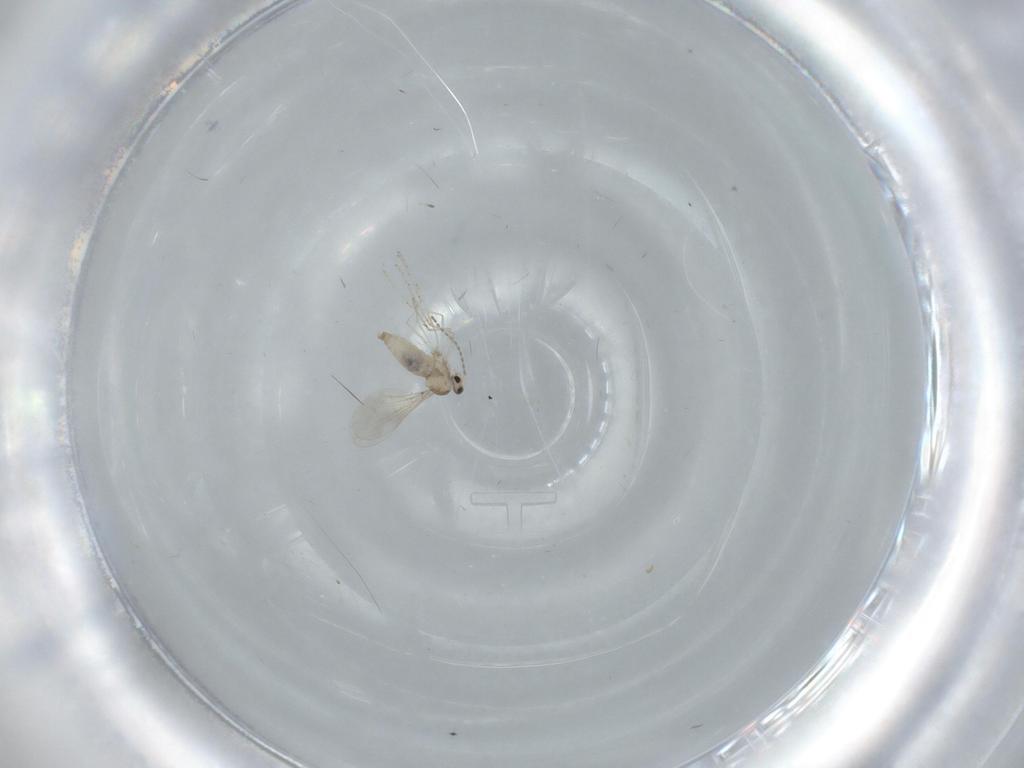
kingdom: Animalia
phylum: Arthropoda
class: Insecta
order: Diptera
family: Cecidomyiidae
